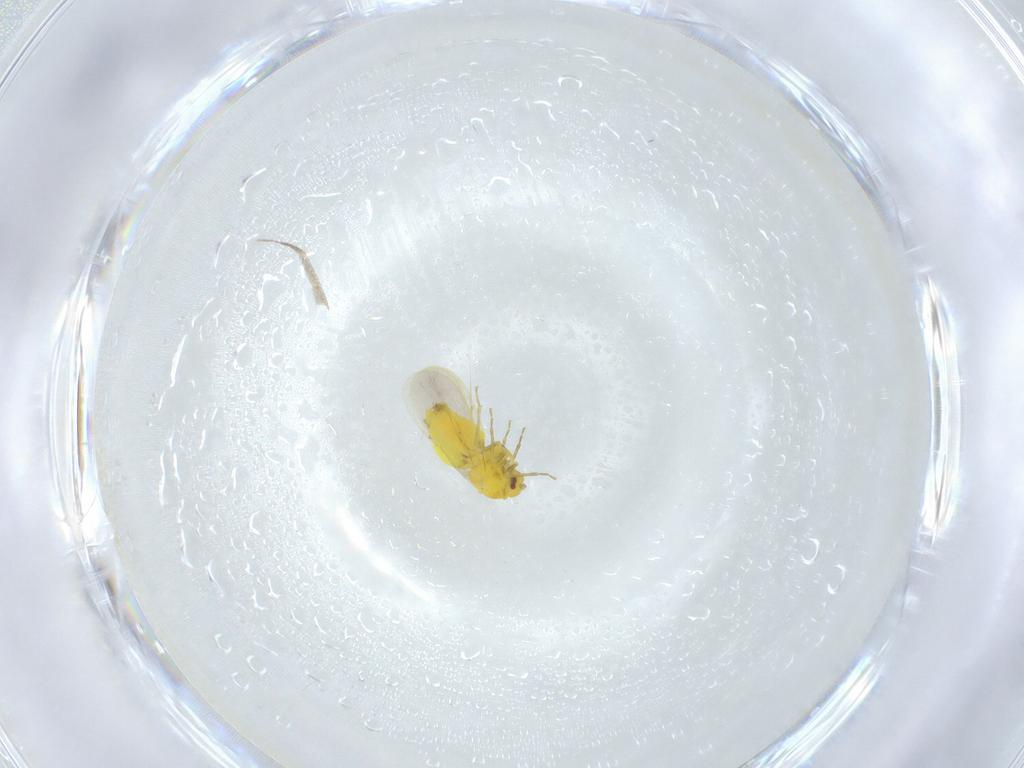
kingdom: Animalia
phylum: Arthropoda
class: Insecta
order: Hemiptera
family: Aleyrodidae
